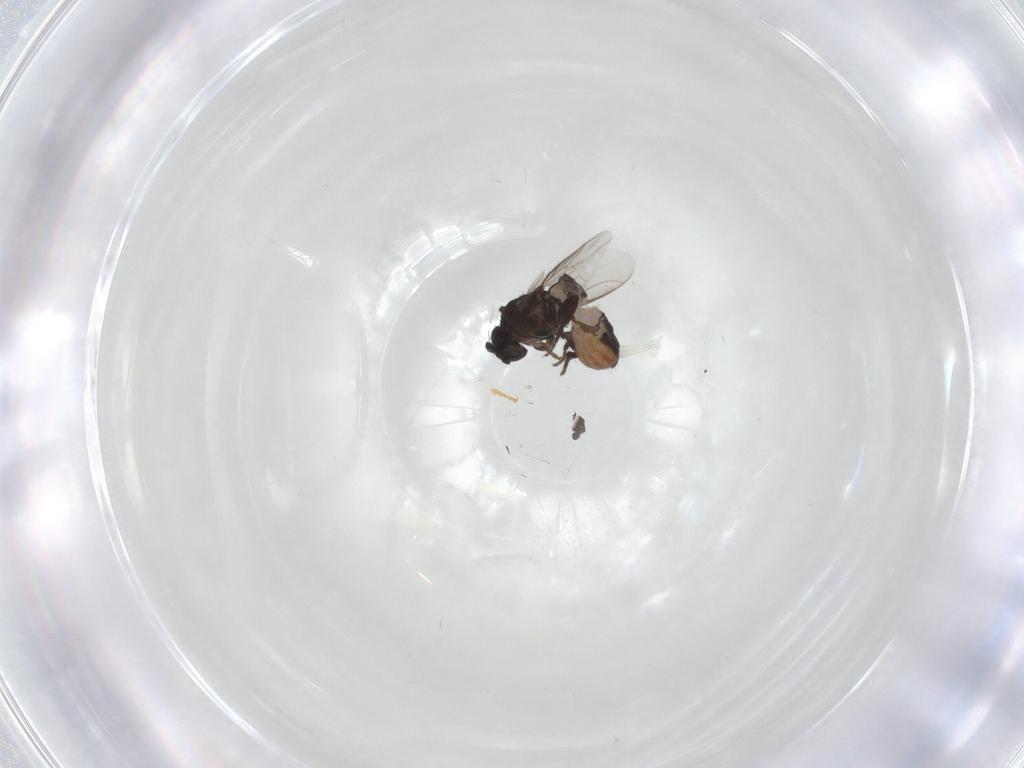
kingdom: Animalia
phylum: Arthropoda
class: Insecta
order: Diptera
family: Sphaeroceridae
